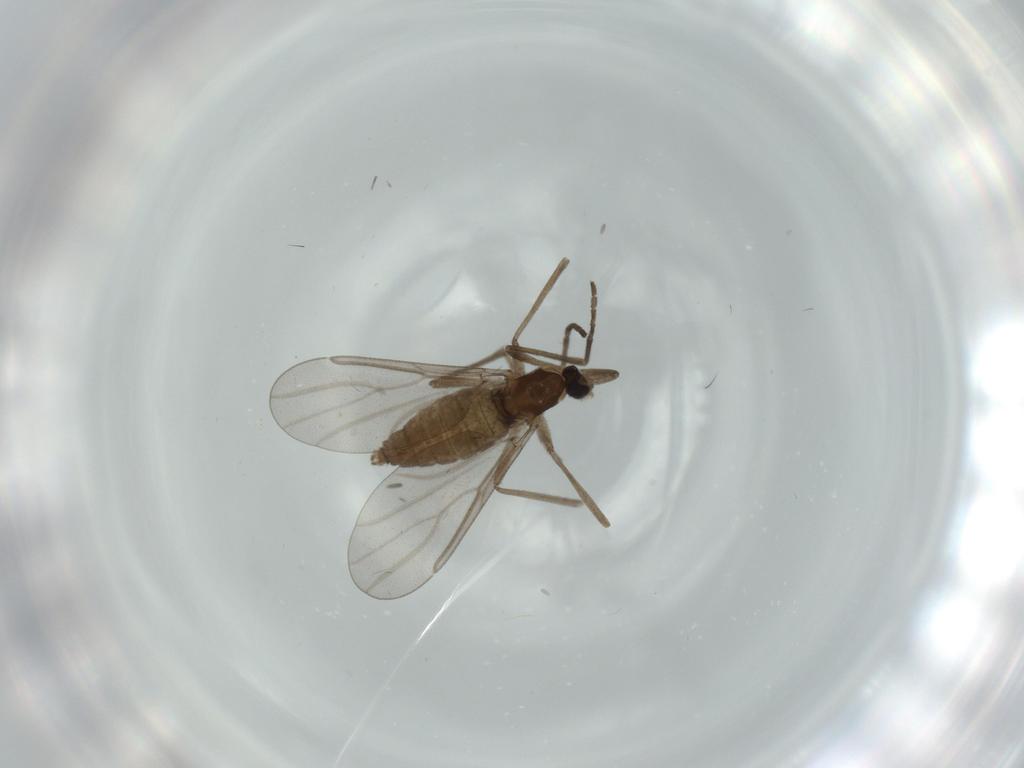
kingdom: Animalia
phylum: Arthropoda
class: Insecta
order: Diptera
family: Cecidomyiidae
